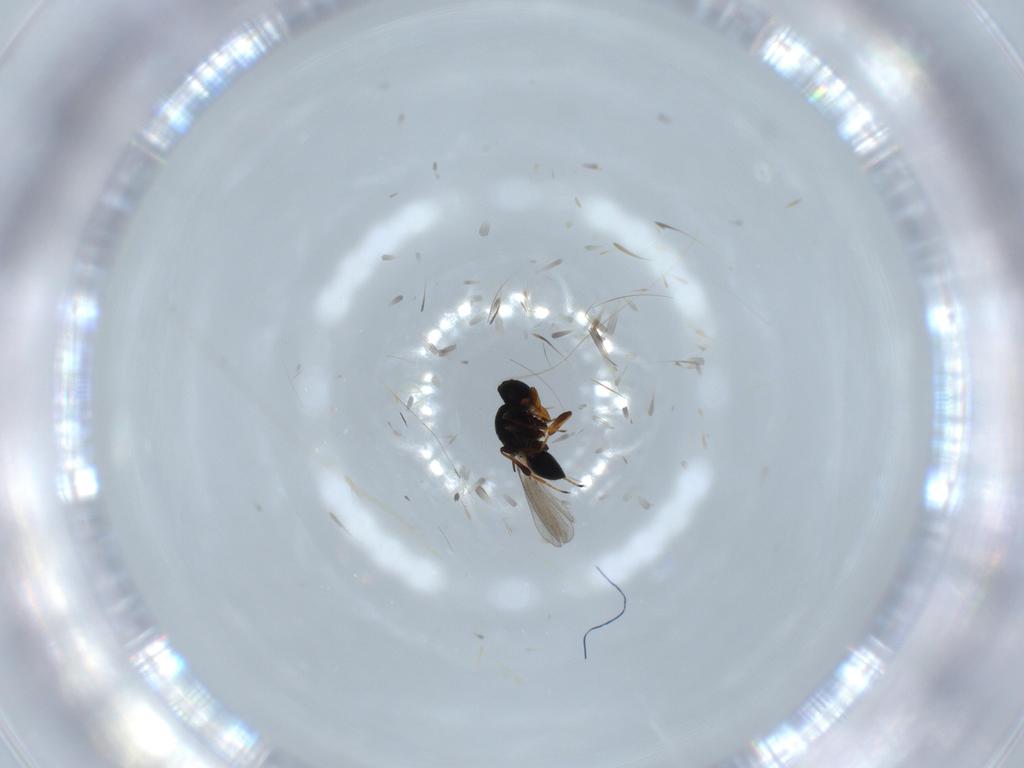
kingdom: Animalia
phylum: Arthropoda
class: Insecta
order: Hymenoptera
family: Platygastridae
